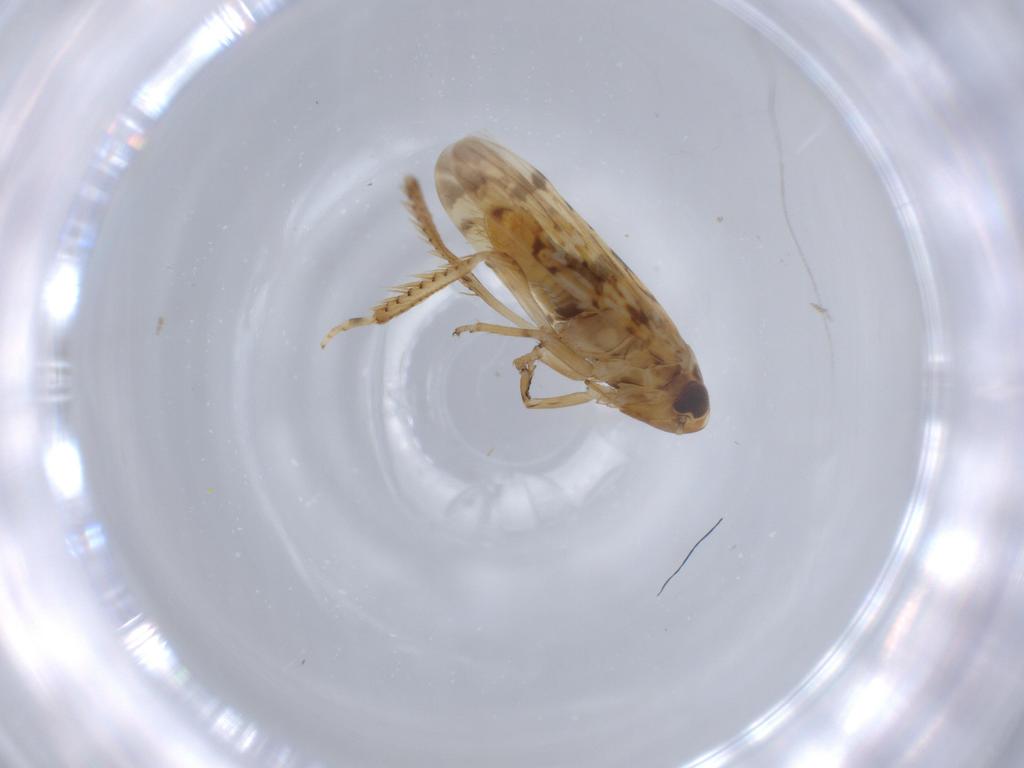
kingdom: Animalia
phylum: Arthropoda
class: Insecta
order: Hemiptera
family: Cicadellidae
